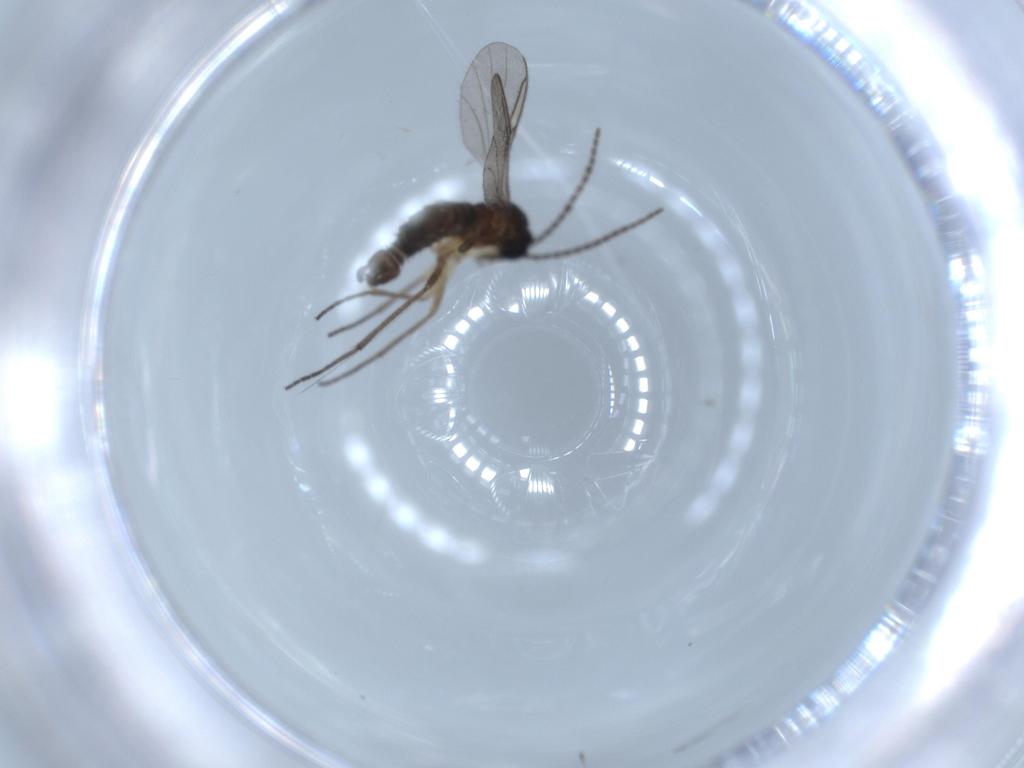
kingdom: Animalia
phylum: Arthropoda
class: Insecta
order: Diptera
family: Sciaridae
